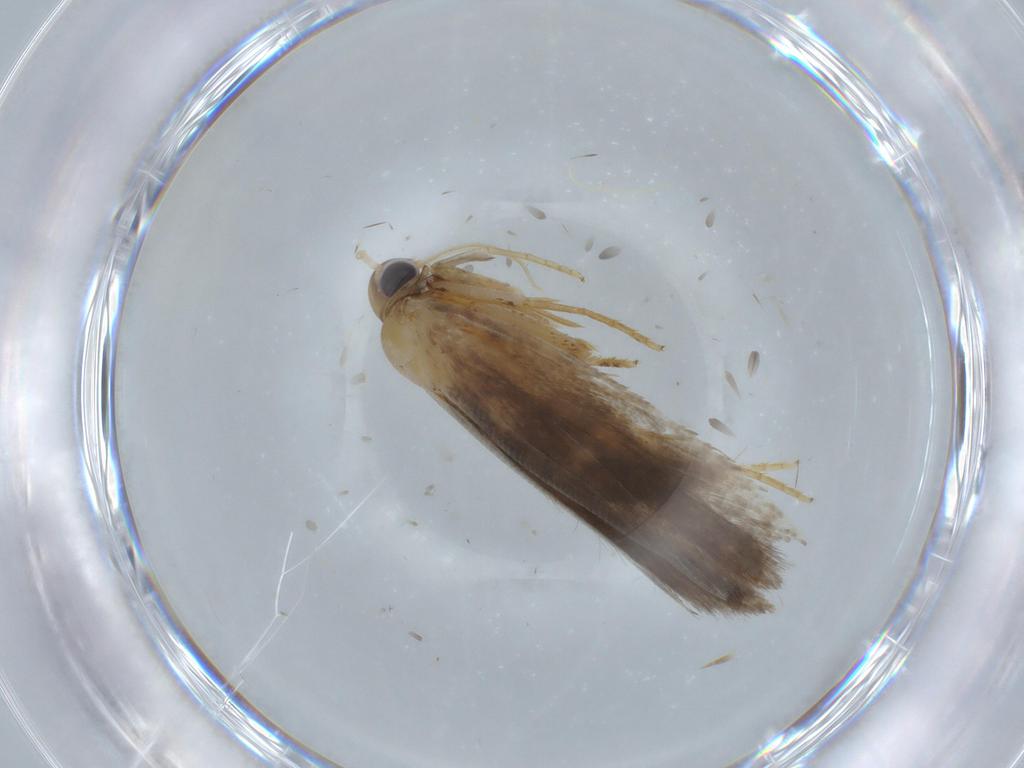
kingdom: Animalia
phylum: Arthropoda
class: Insecta
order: Lepidoptera
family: Gelechiidae
